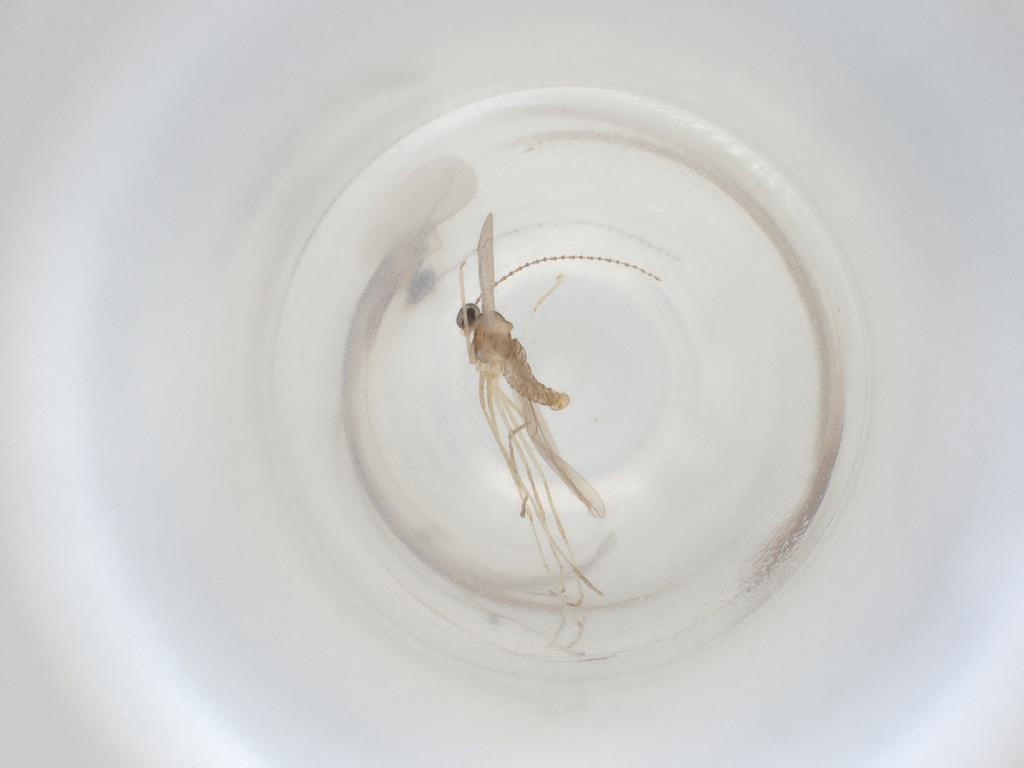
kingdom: Animalia
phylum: Arthropoda
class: Insecta
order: Diptera
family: Cecidomyiidae
